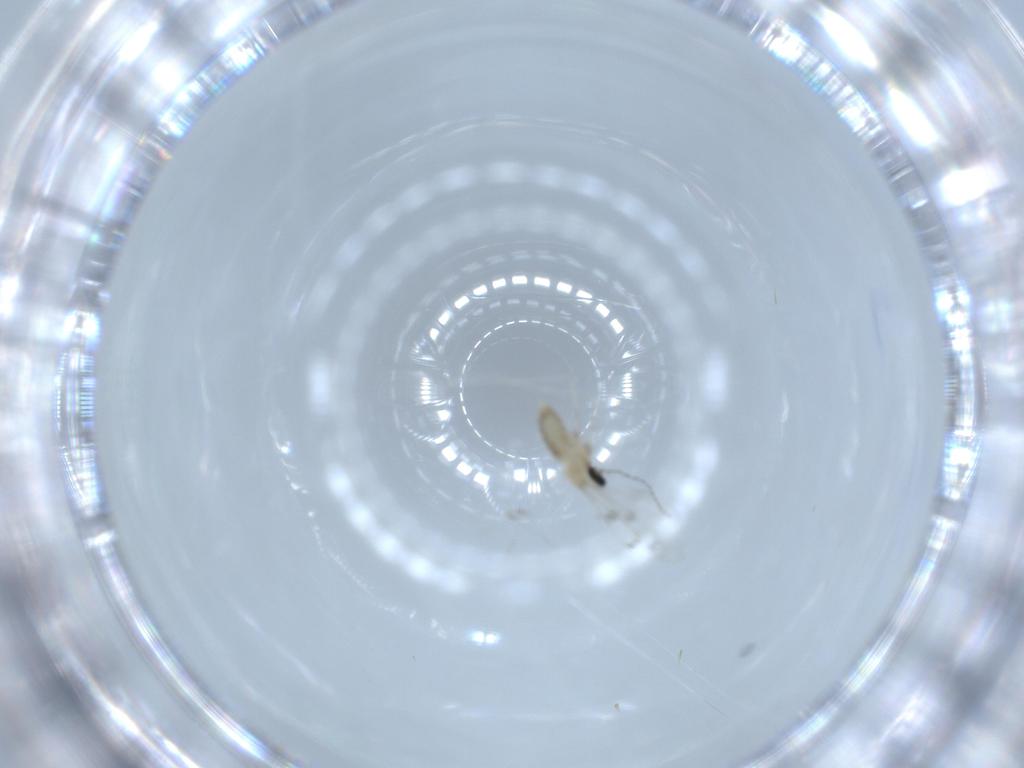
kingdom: Animalia
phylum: Arthropoda
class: Insecta
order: Diptera
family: Cecidomyiidae
